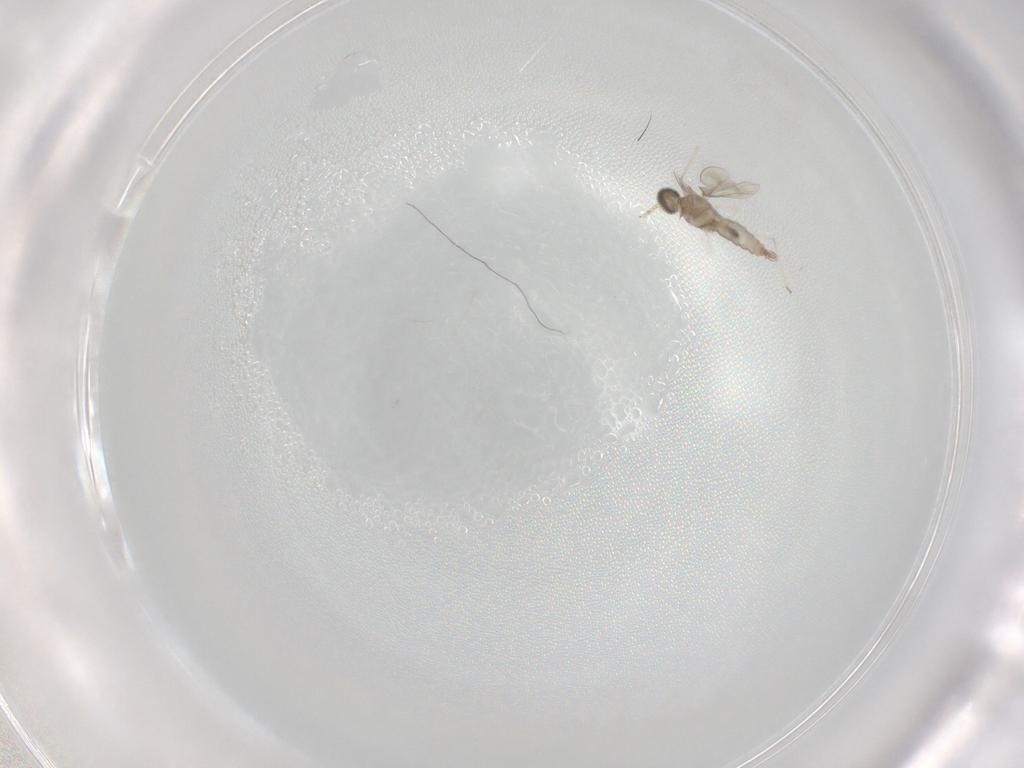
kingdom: Animalia
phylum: Arthropoda
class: Insecta
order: Diptera
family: Cecidomyiidae
